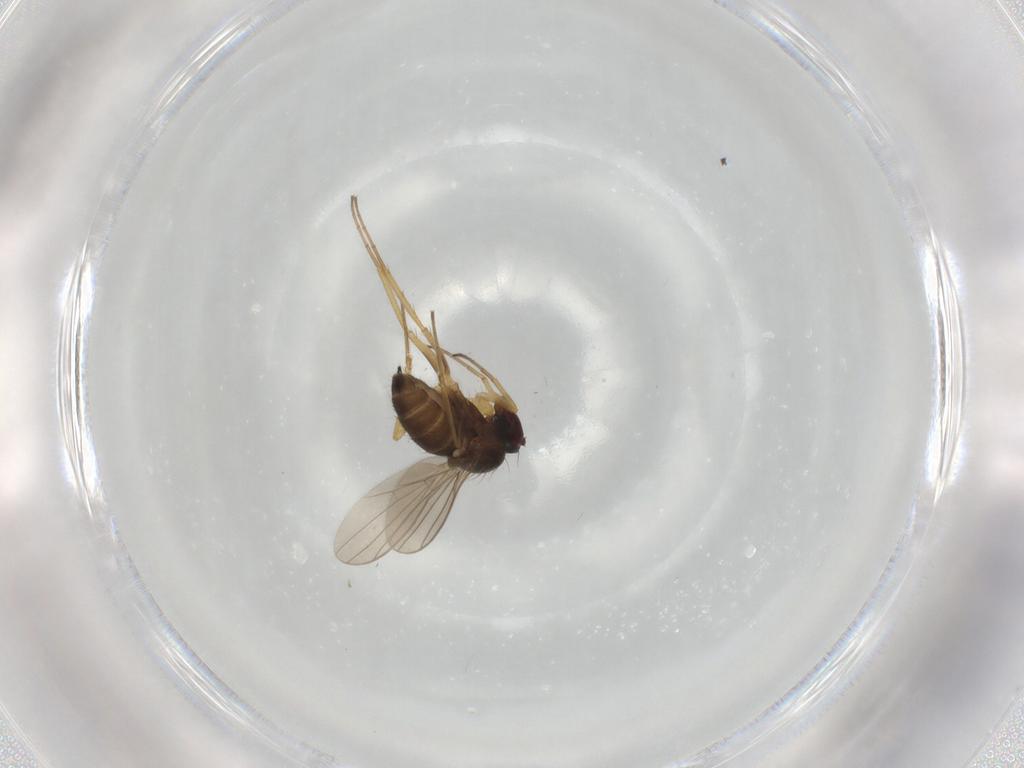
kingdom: Animalia
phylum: Arthropoda
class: Insecta
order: Diptera
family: Dolichopodidae
